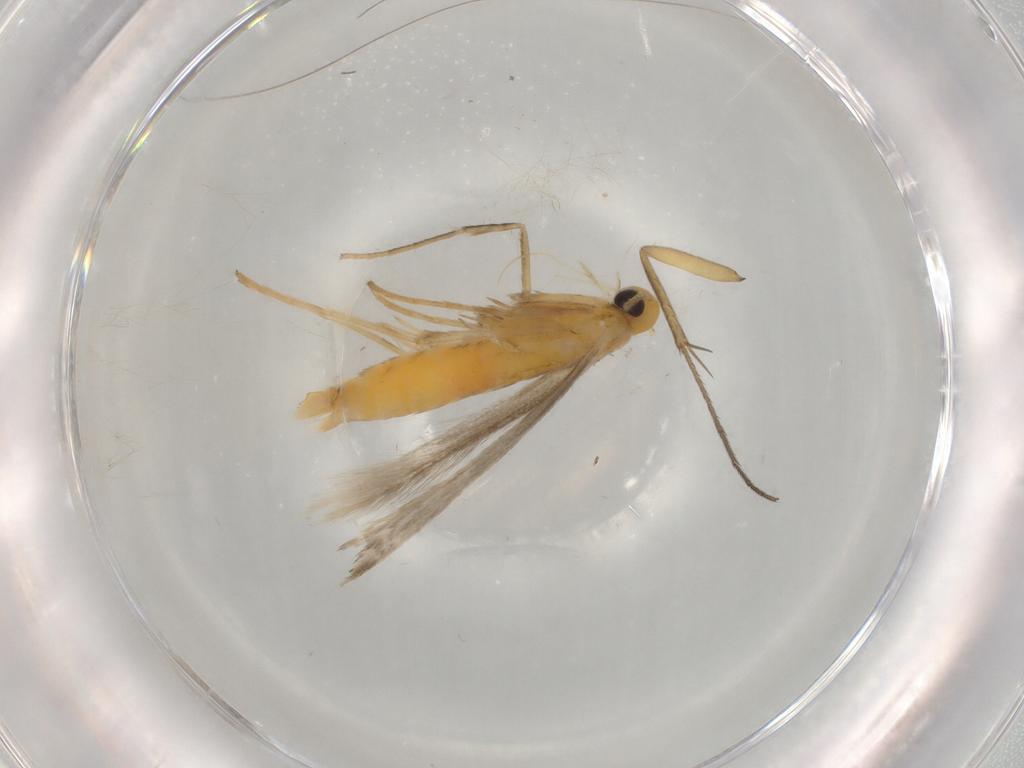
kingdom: Animalia
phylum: Arthropoda
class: Insecta
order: Lepidoptera
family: Gracillariidae
